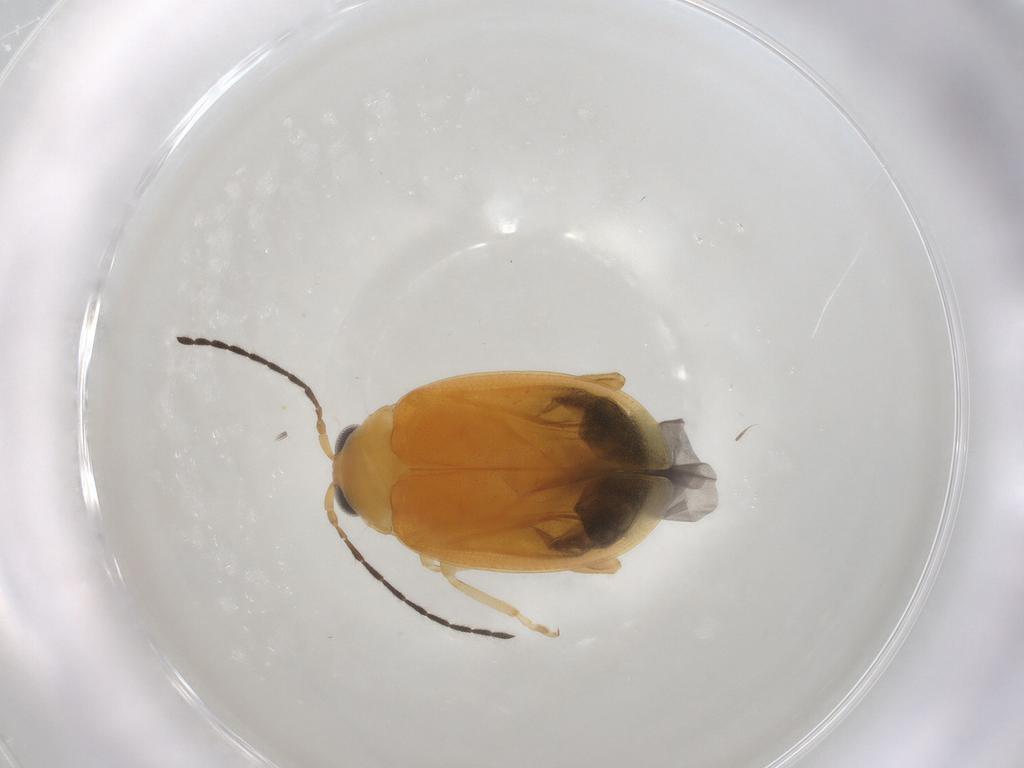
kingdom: Animalia
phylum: Arthropoda
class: Insecta
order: Coleoptera
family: Chrysomelidae
